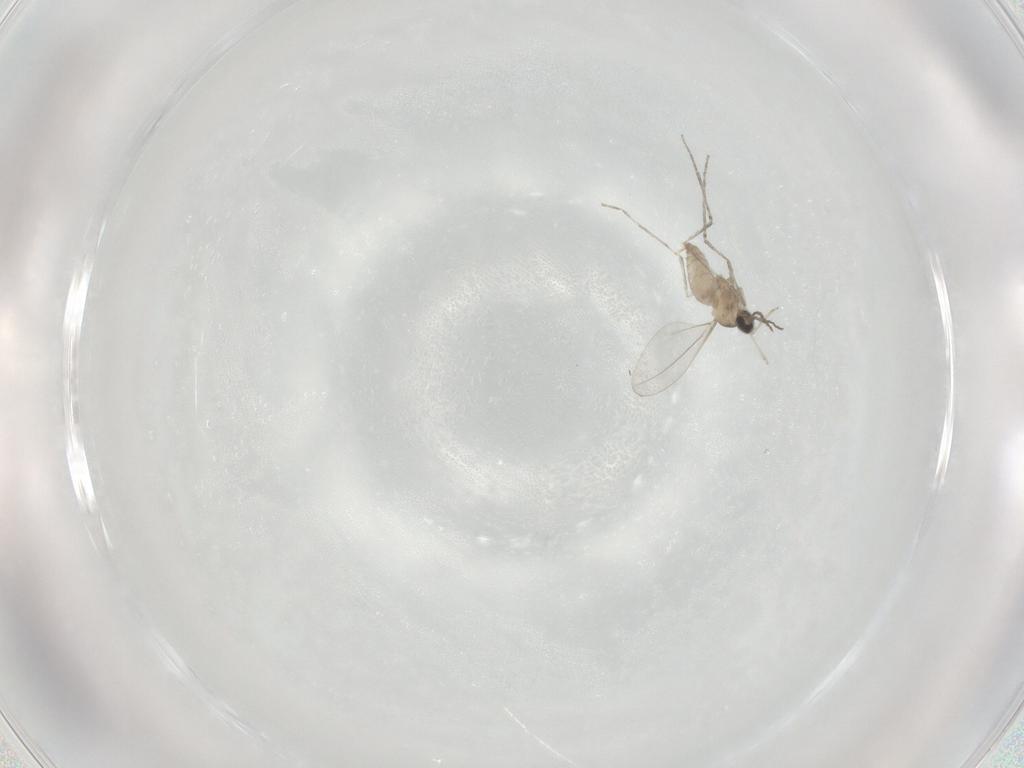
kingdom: Animalia
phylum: Arthropoda
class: Insecta
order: Diptera
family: Cecidomyiidae
